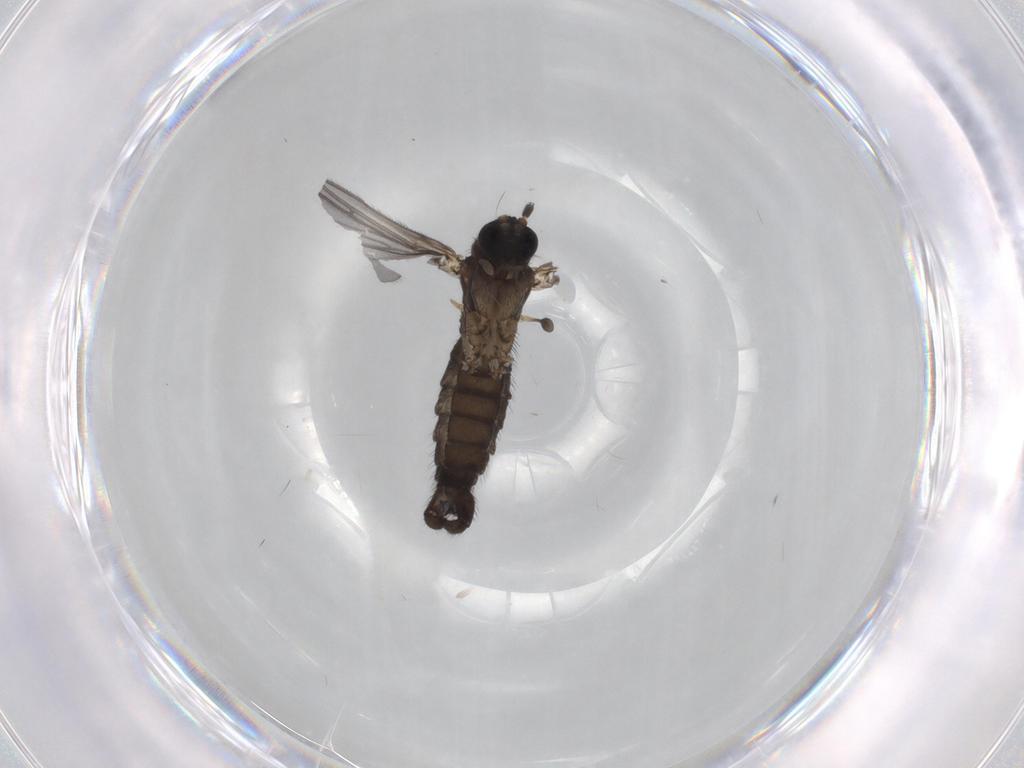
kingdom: Animalia
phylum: Arthropoda
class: Insecta
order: Diptera
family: Sciaridae
